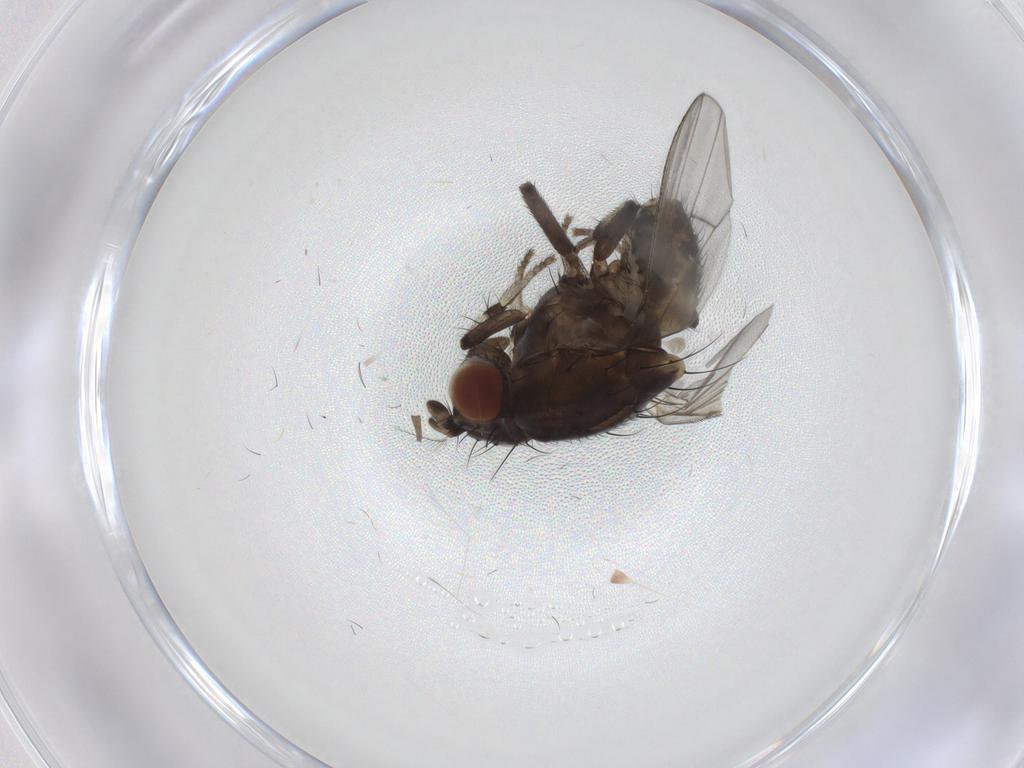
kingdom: Animalia
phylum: Arthropoda
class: Insecta
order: Diptera
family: Lauxaniidae
